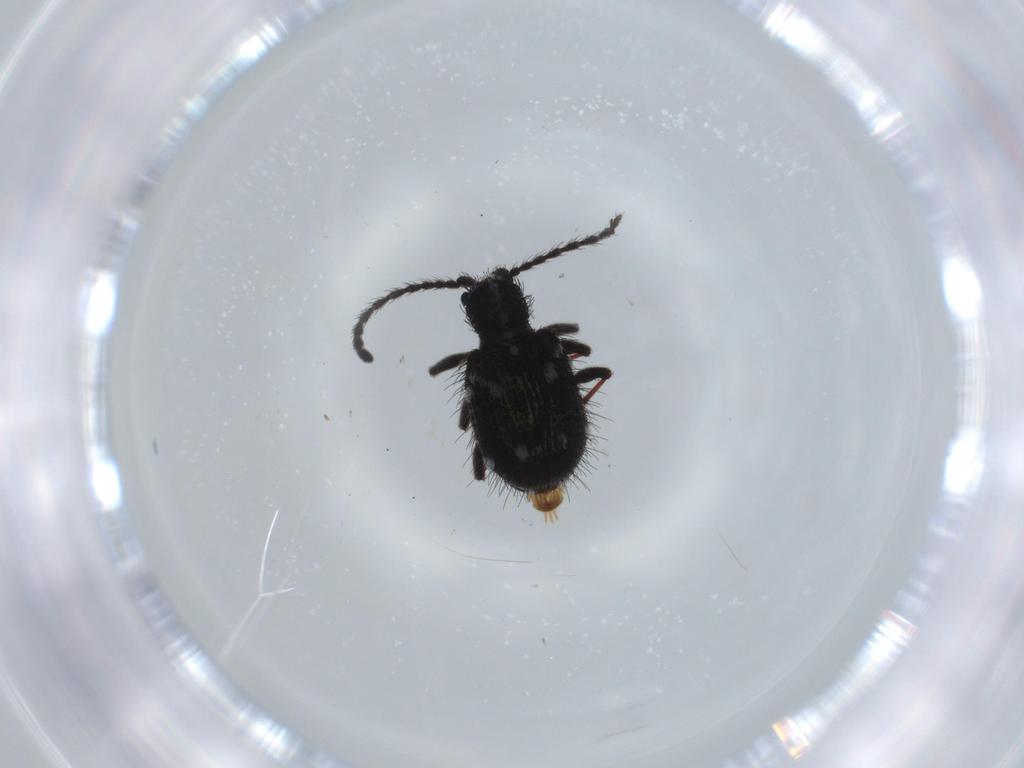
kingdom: Animalia
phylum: Arthropoda
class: Insecta
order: Coleoptera
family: Ptinidae
